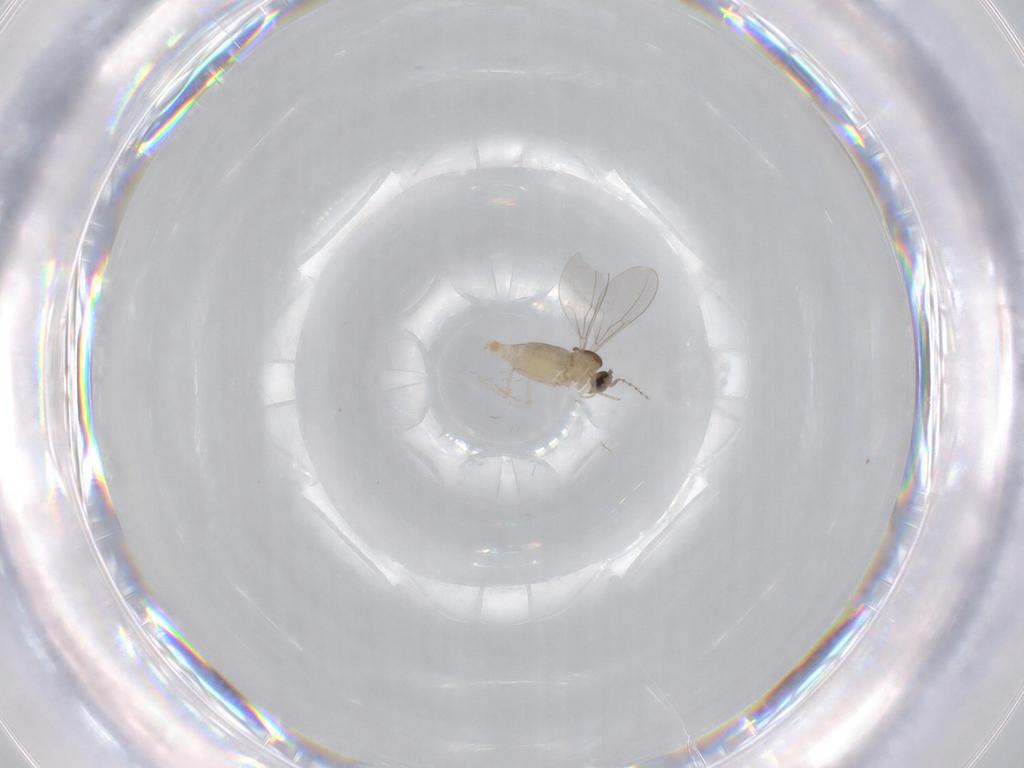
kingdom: Animalia
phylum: Arthropoda
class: Insecta
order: Diptera
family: Cecidomyiidae
